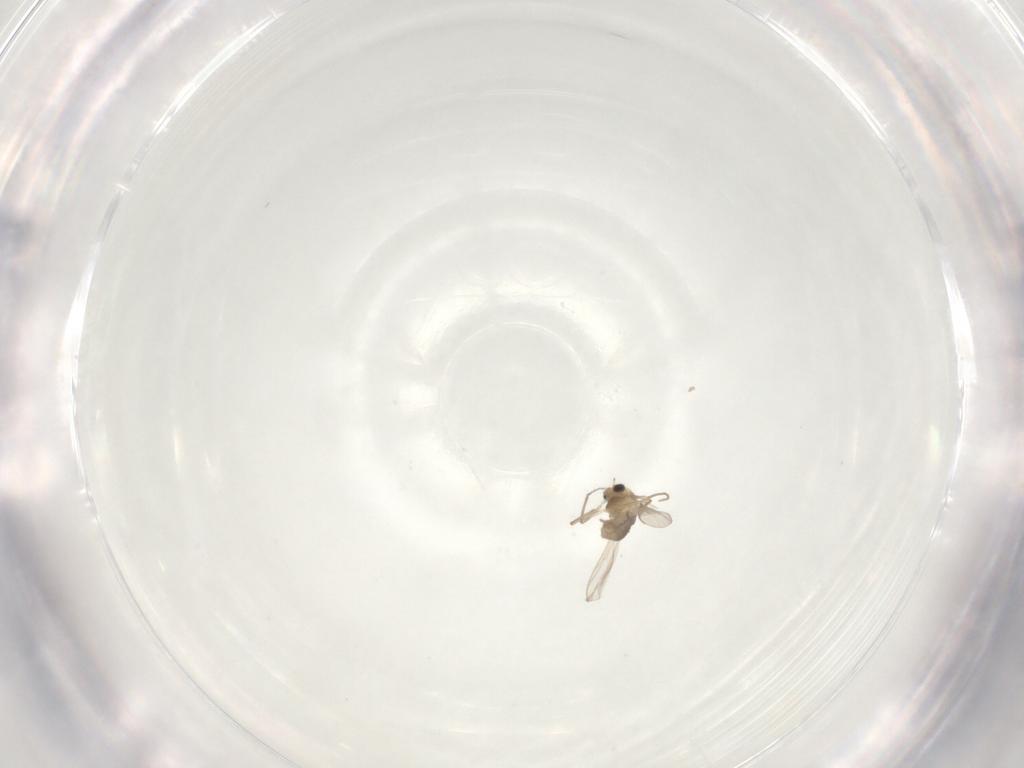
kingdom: Animalia
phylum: Arthropoda
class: Insecta
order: Diptera
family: Chironomidae
